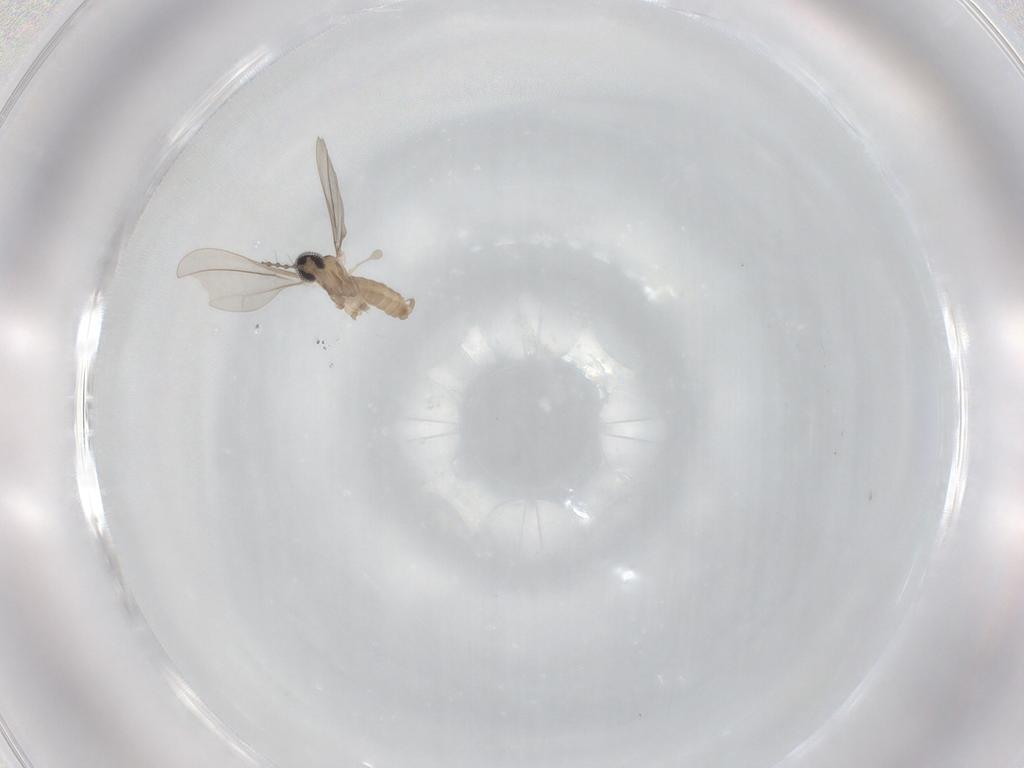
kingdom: Animalia
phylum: Arthropoda
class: Insecta
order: Diptera
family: Cecidomyiidae
